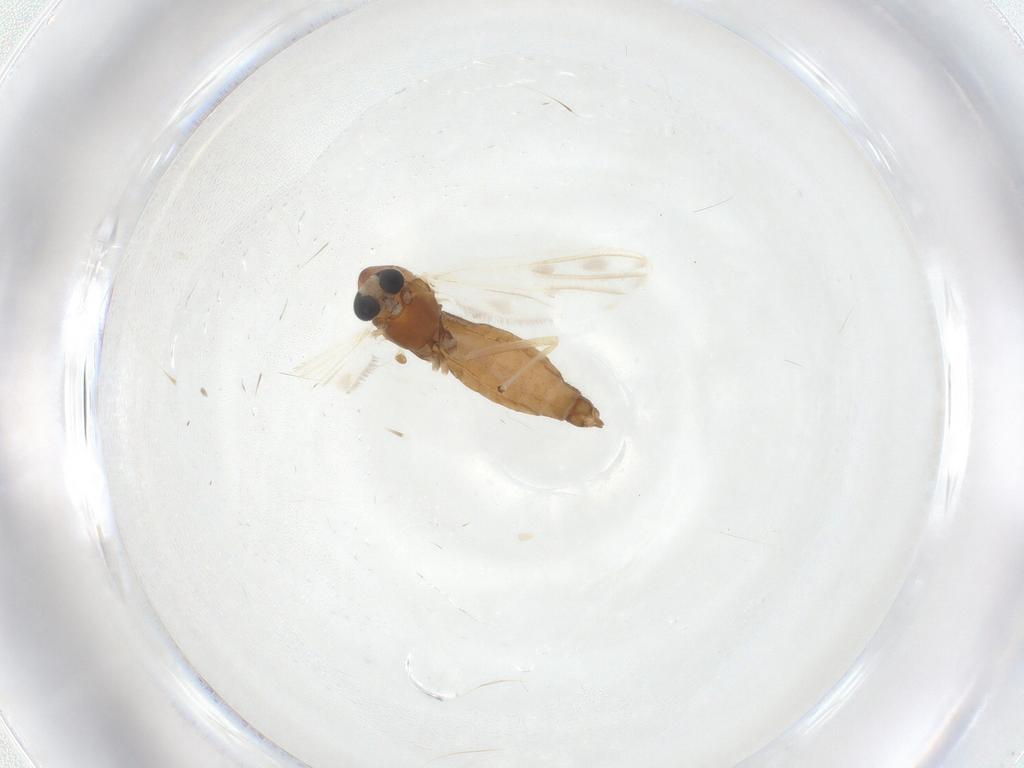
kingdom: Animalia
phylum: Arthropoda
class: Insecta
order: Diptera
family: Chironomidae
